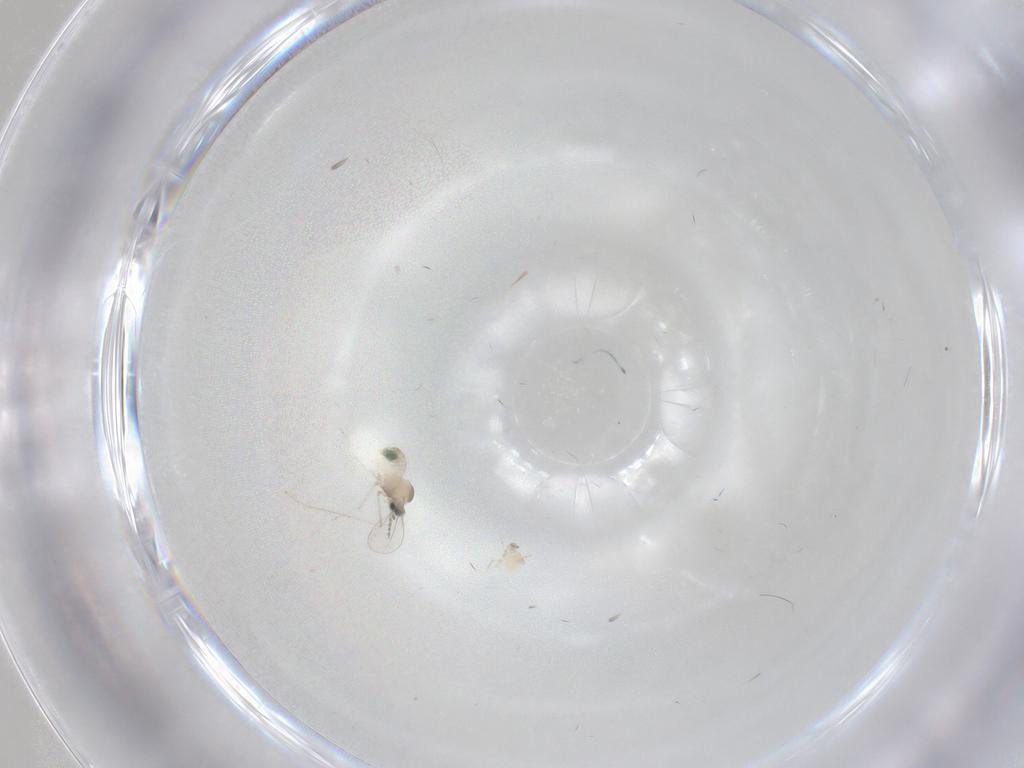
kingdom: Animalia
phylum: Arthropoda
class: Insecta
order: Diptera
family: Cecidomyiidae
